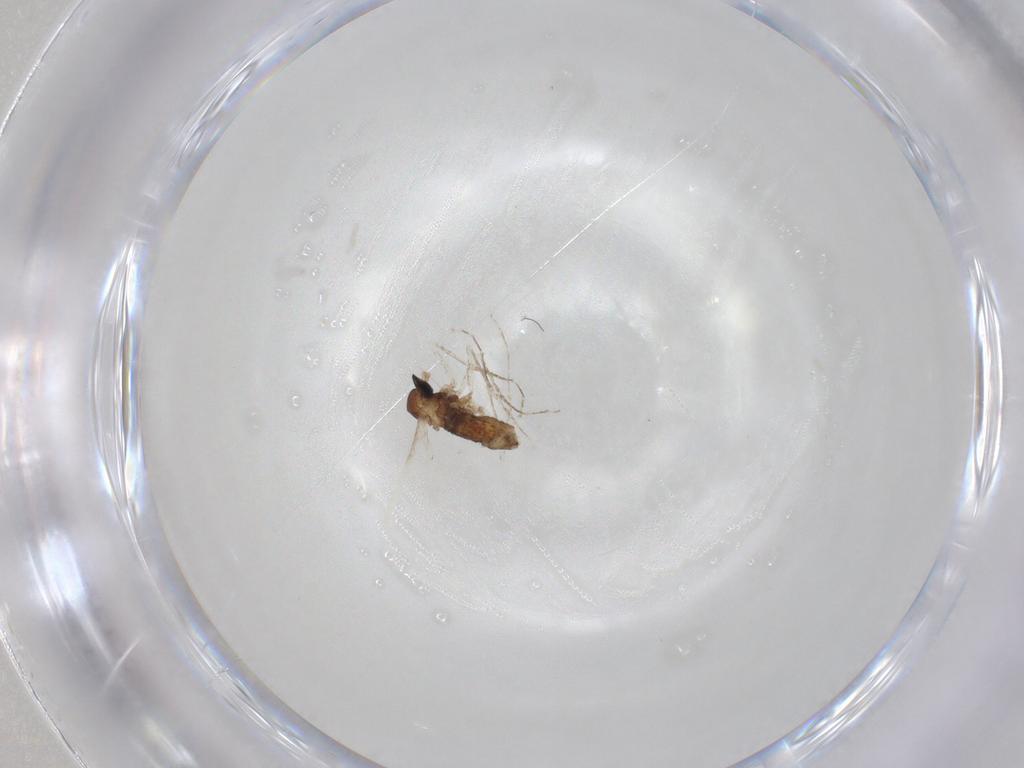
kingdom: Animalia
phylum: Arthropoda
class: Insecta
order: Diptera
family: Cecidomyiidae
